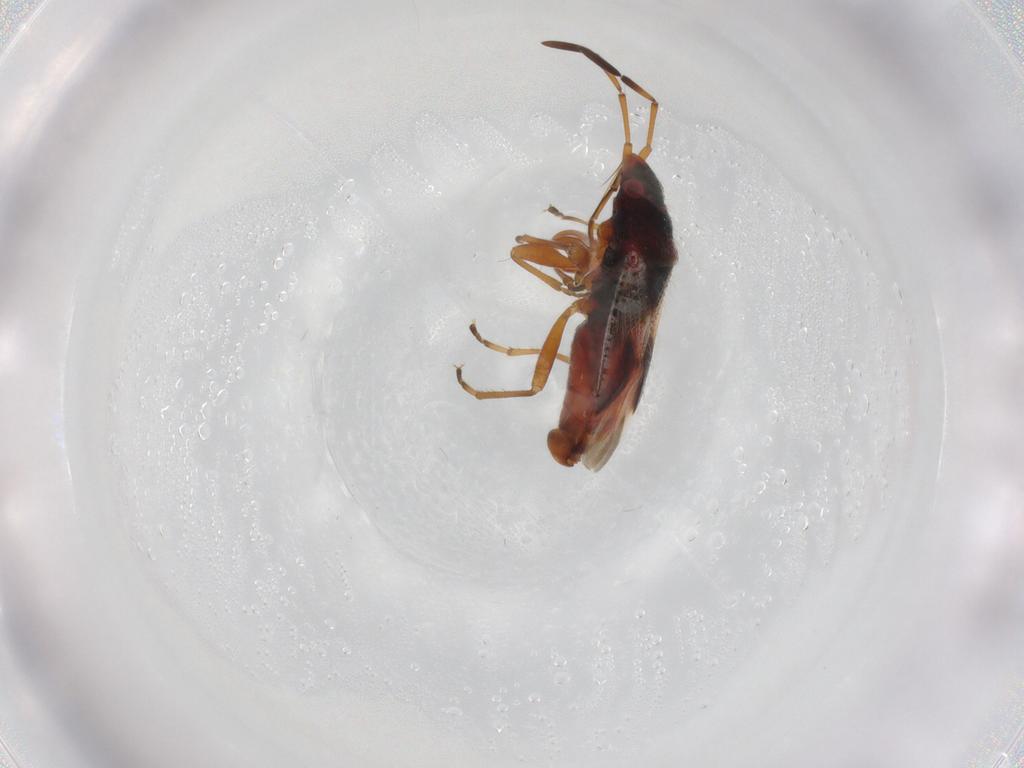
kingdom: Animalia
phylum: Arthropoda
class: Insecta
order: Hemiptera
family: Rhyparochromidae
